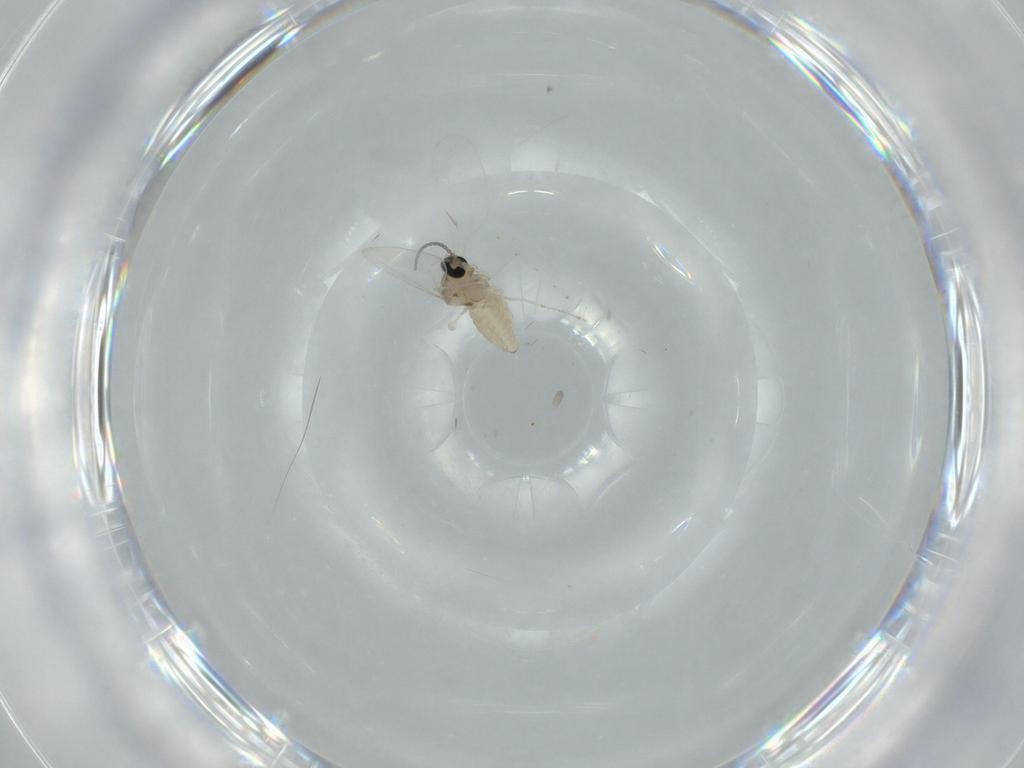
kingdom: Animalia
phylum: Arthropoda
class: Insecta
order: Diptera
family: Cecidomyiidae
